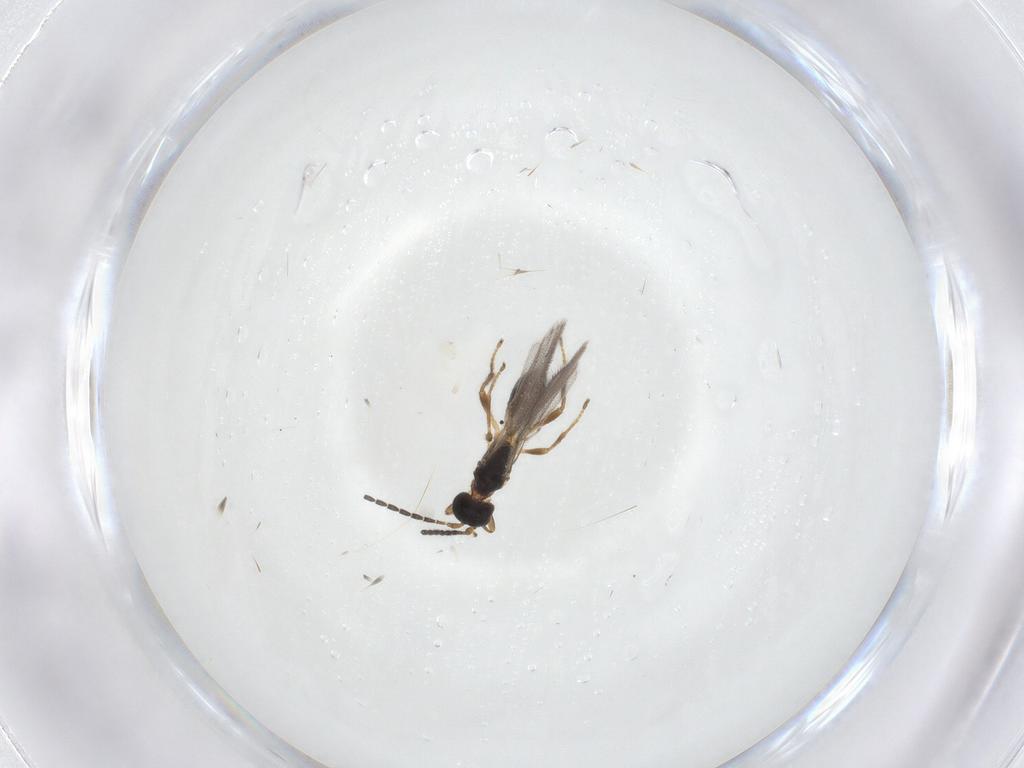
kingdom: Animalia
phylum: Arthropoda
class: Insecta
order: Hymenoptera
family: Braconidae
